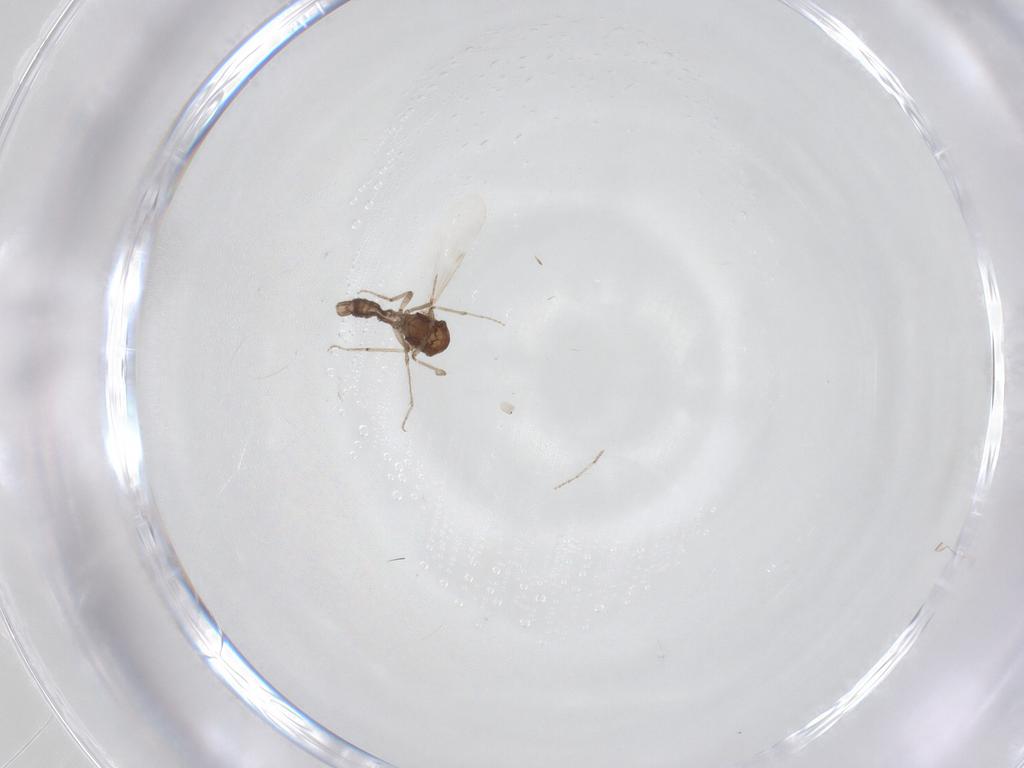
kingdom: Animalia
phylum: Arthropoda
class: Insecta
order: Diptera
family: Ceratopogonidae
